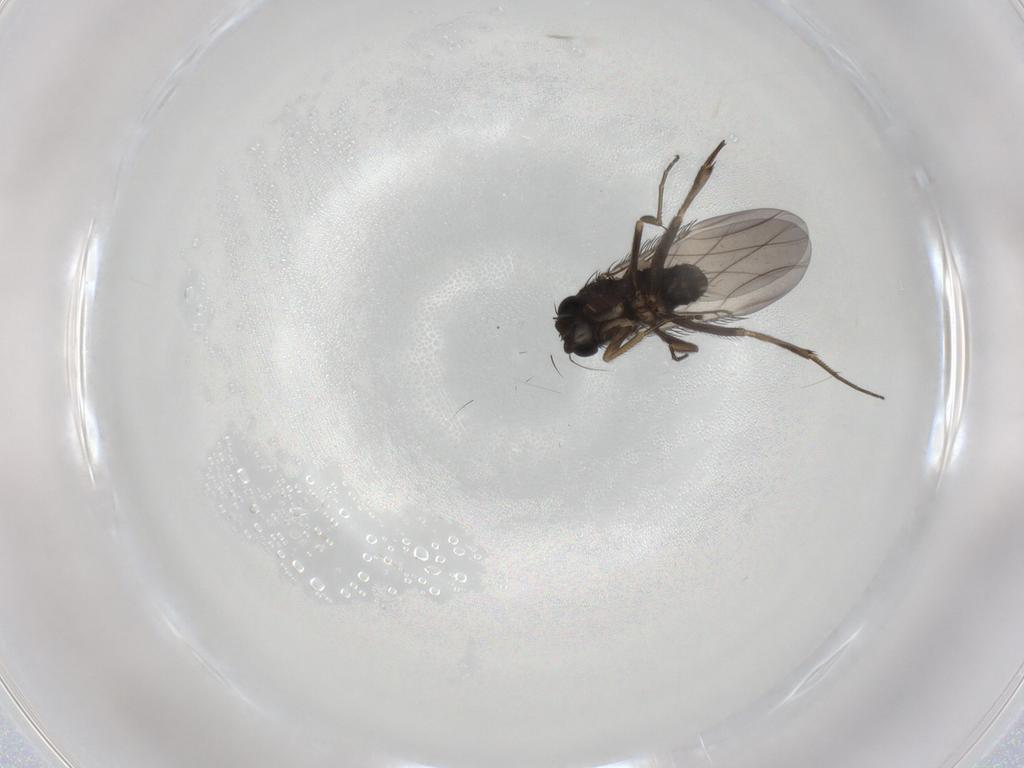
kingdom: Animalia
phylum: Arthropoda
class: Insecta
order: Diptera
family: Phoridae
